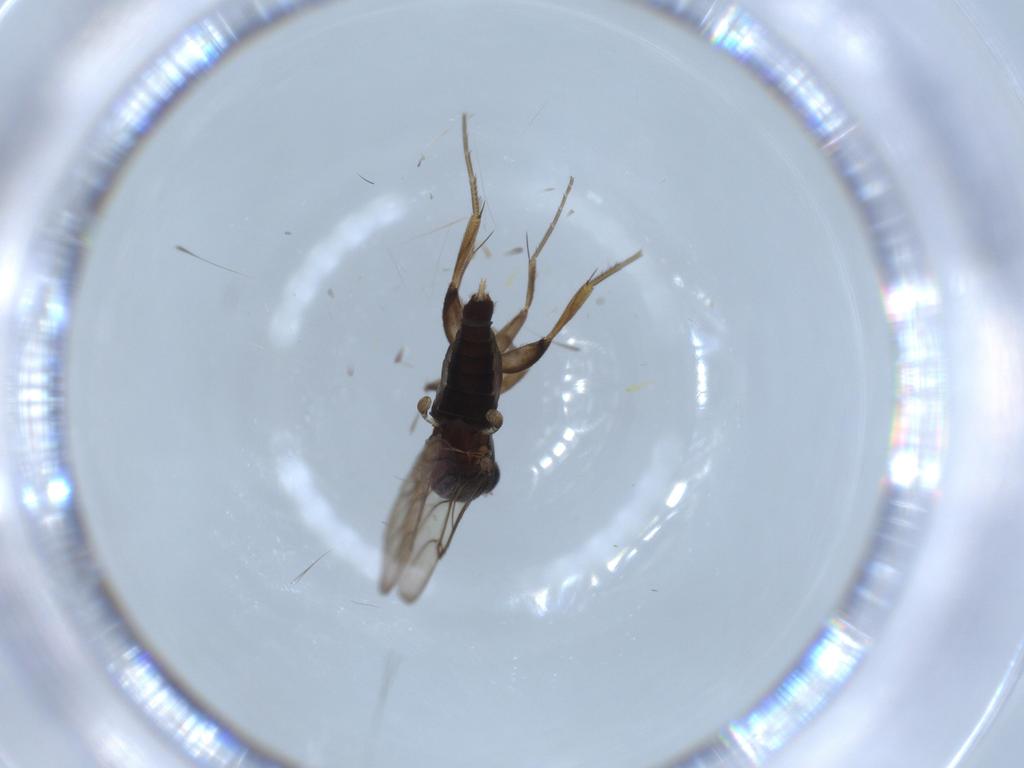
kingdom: Animalia
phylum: Arthropoda
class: Insecta
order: Diptera
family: Phoridae
